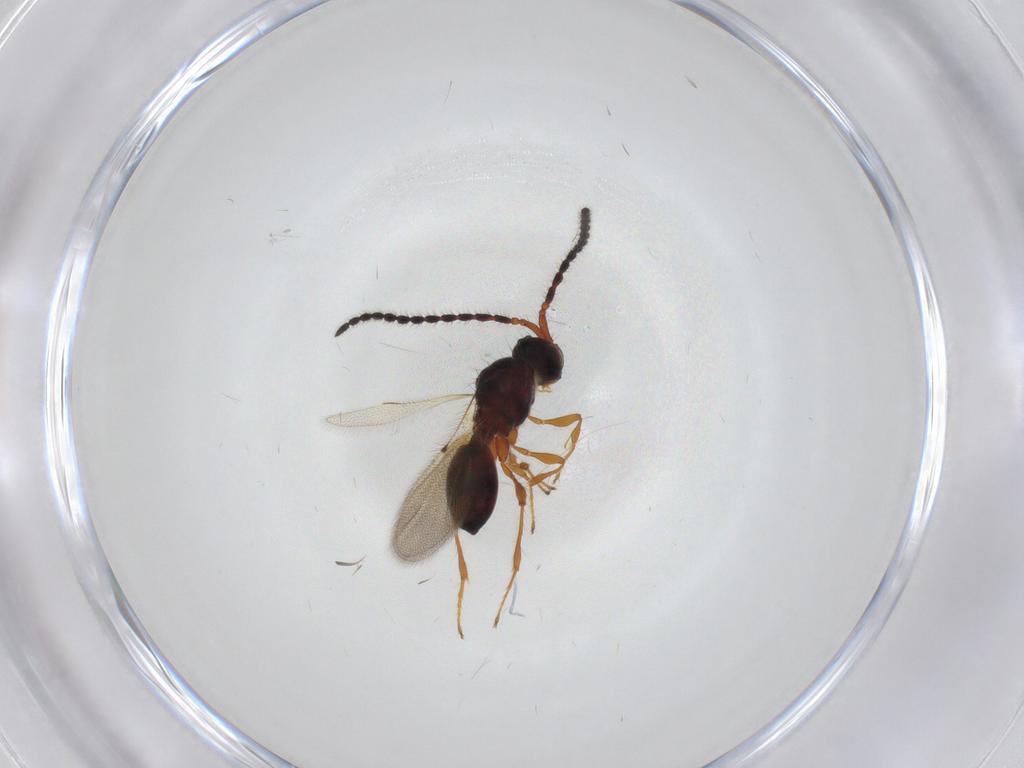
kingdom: Animalia
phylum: Arthropoda
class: Insecta
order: Hymenoptera
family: Diapriidae
